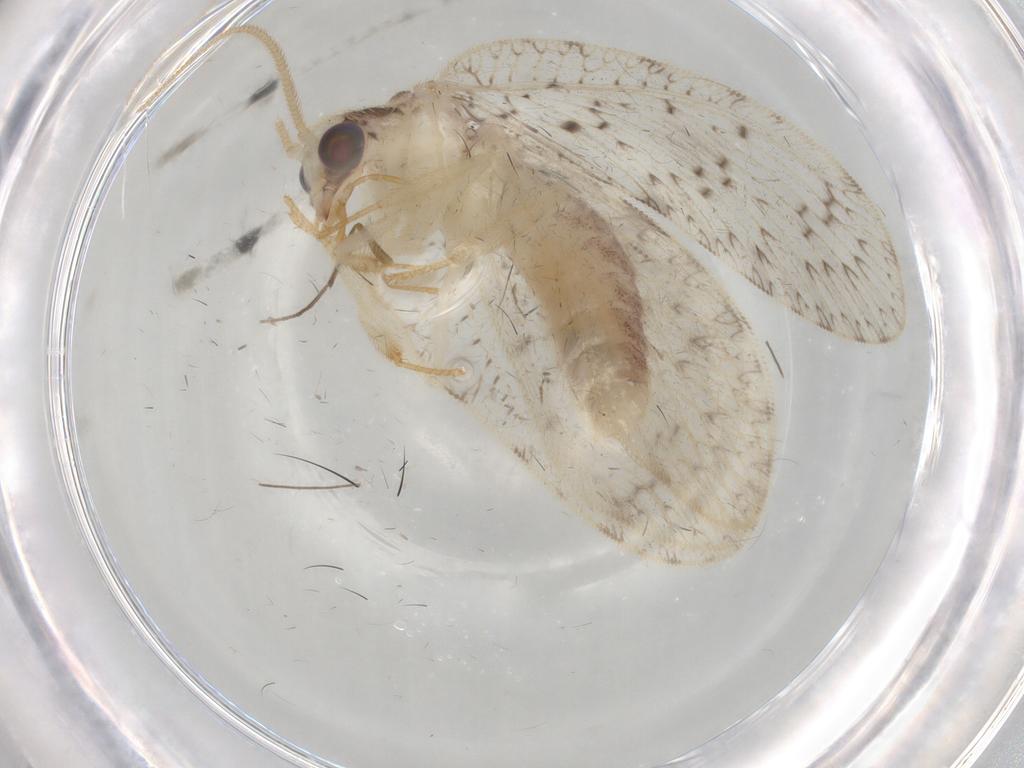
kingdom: Animalia
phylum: Arthropoda
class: Insecta
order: Neuroptera
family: Hemerobiidae
